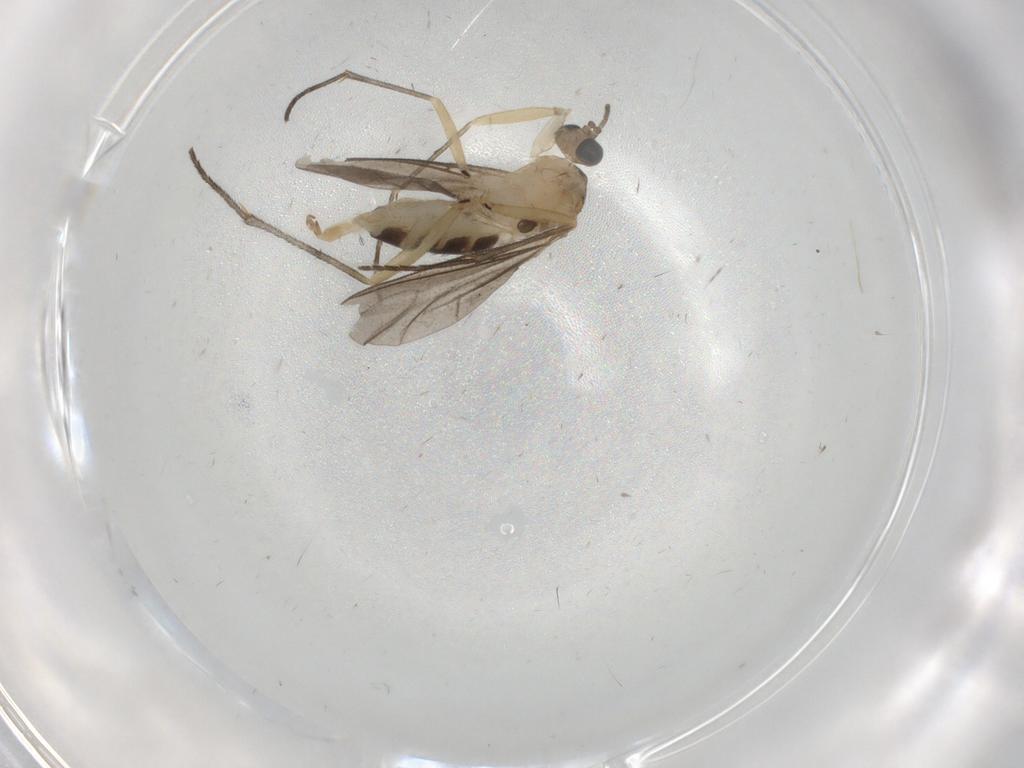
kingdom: Animalia
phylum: Arthropoda
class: Insecta
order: Diptera
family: Sciaridae
